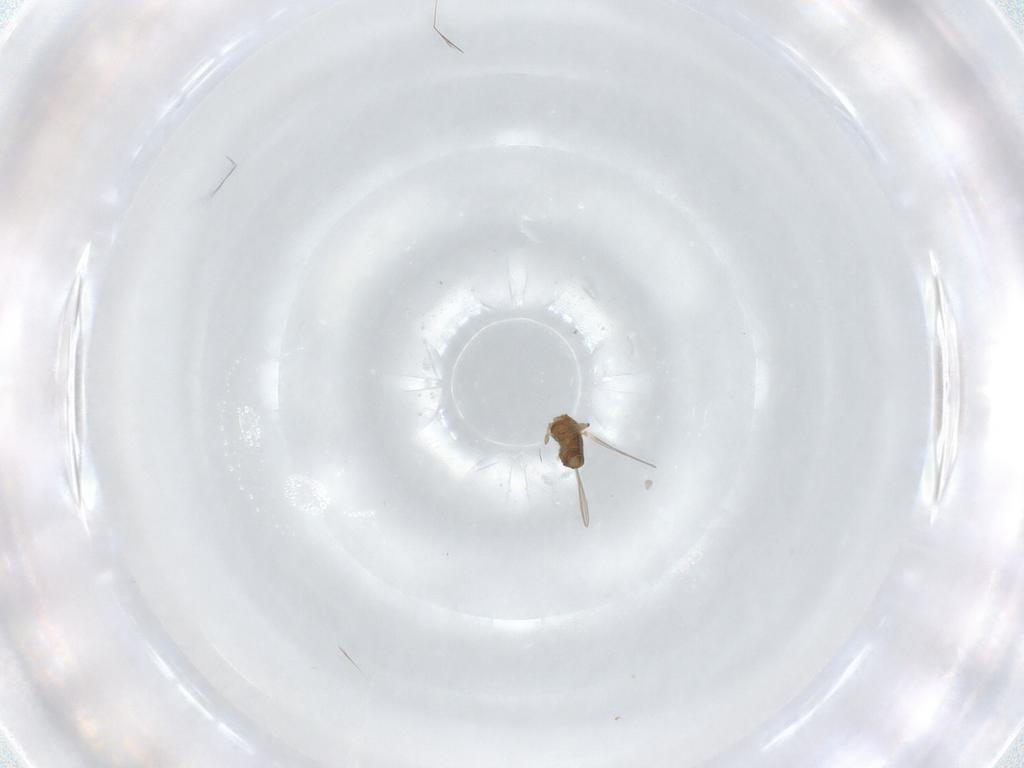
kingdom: Animalia
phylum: Arthropoda
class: Insecta
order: Diptera
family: Chironomidae
